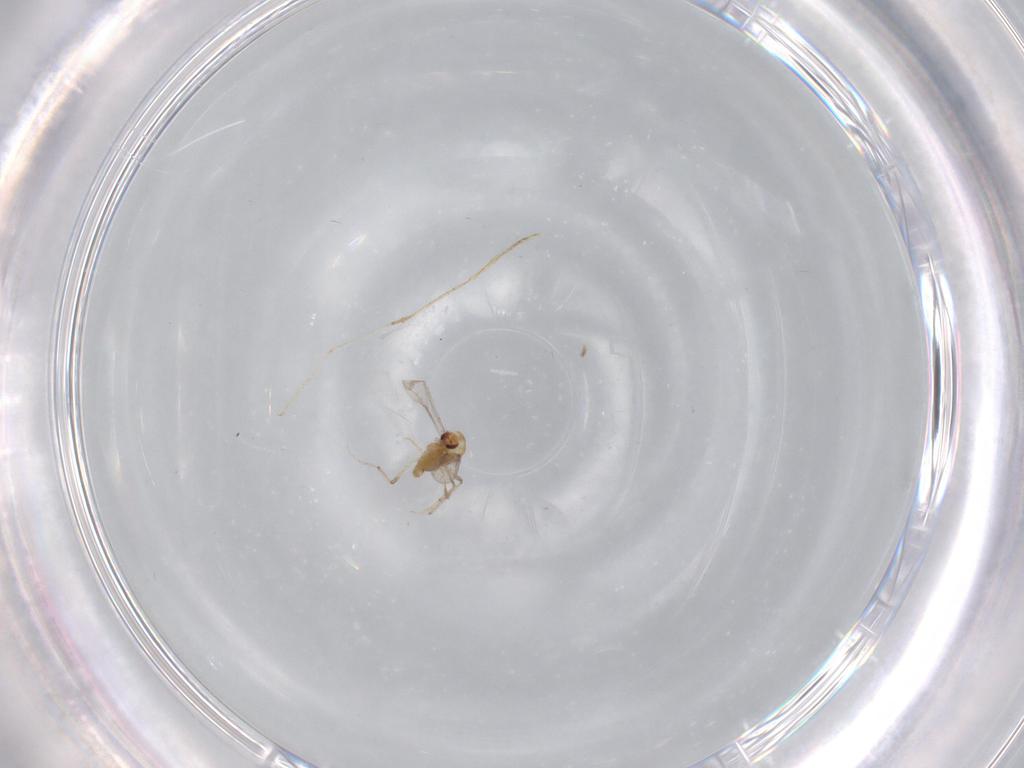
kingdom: Animalia
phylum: Arthropoda
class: Insecta
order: Diptera
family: Chironomidae
